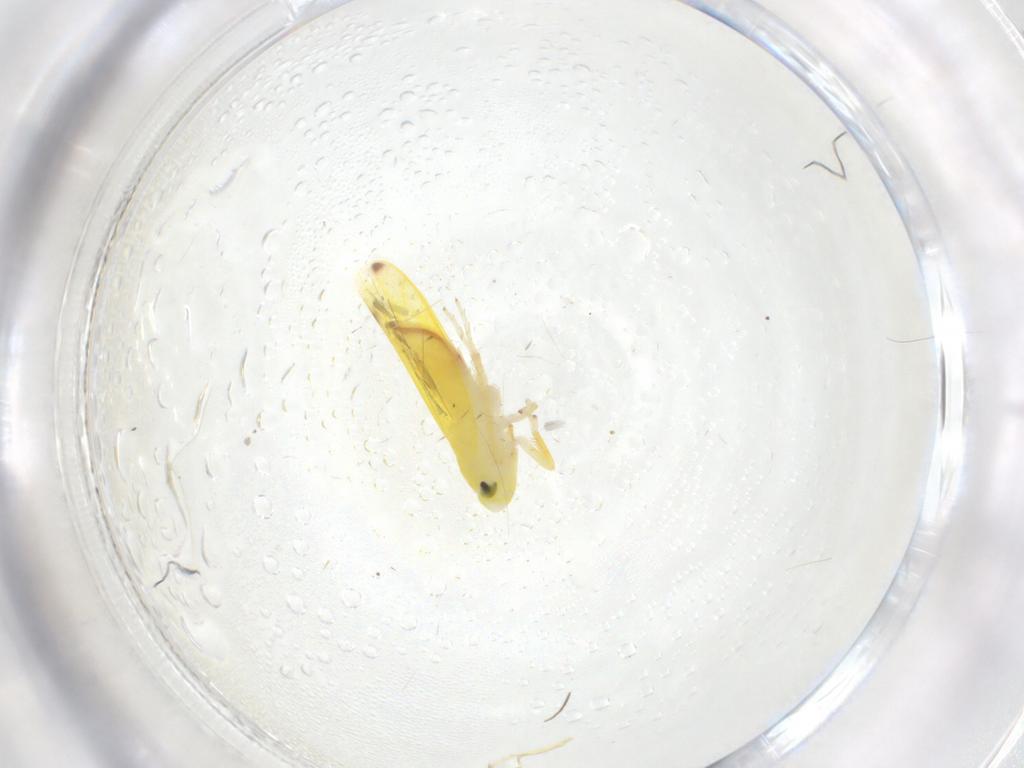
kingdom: Animalia
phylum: Arthropoda
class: Insecta
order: Hemiptera
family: Cicadellidae
